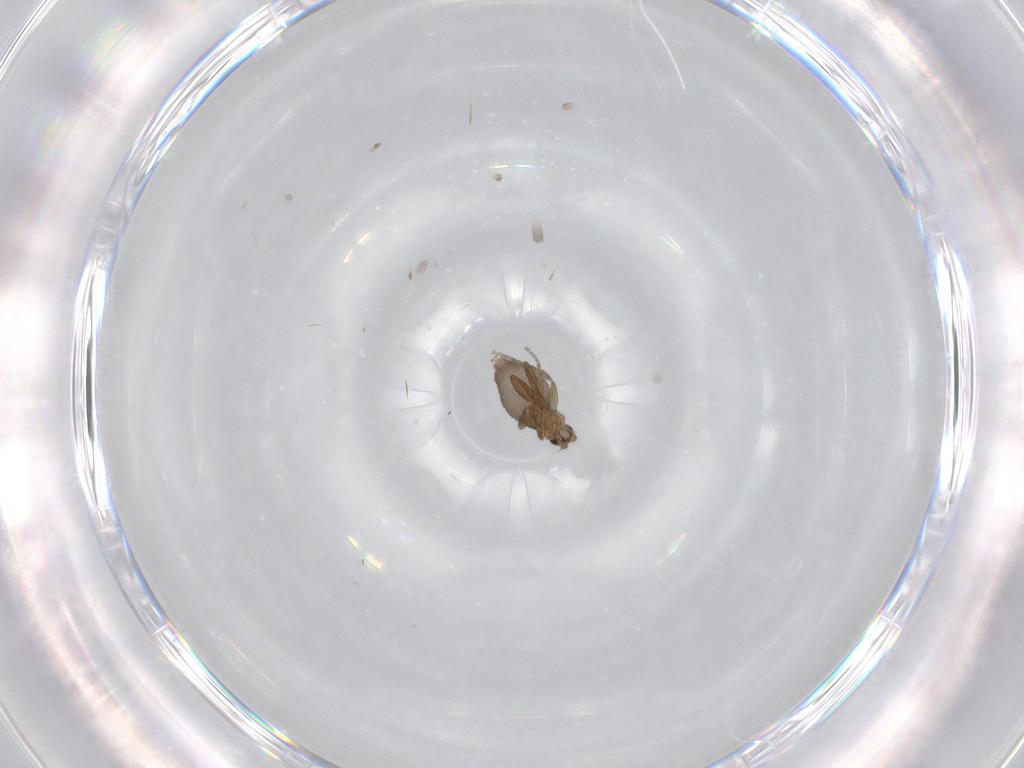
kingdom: Animalia
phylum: Arthropoda
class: Insecta
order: Diptera
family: Phoridae
